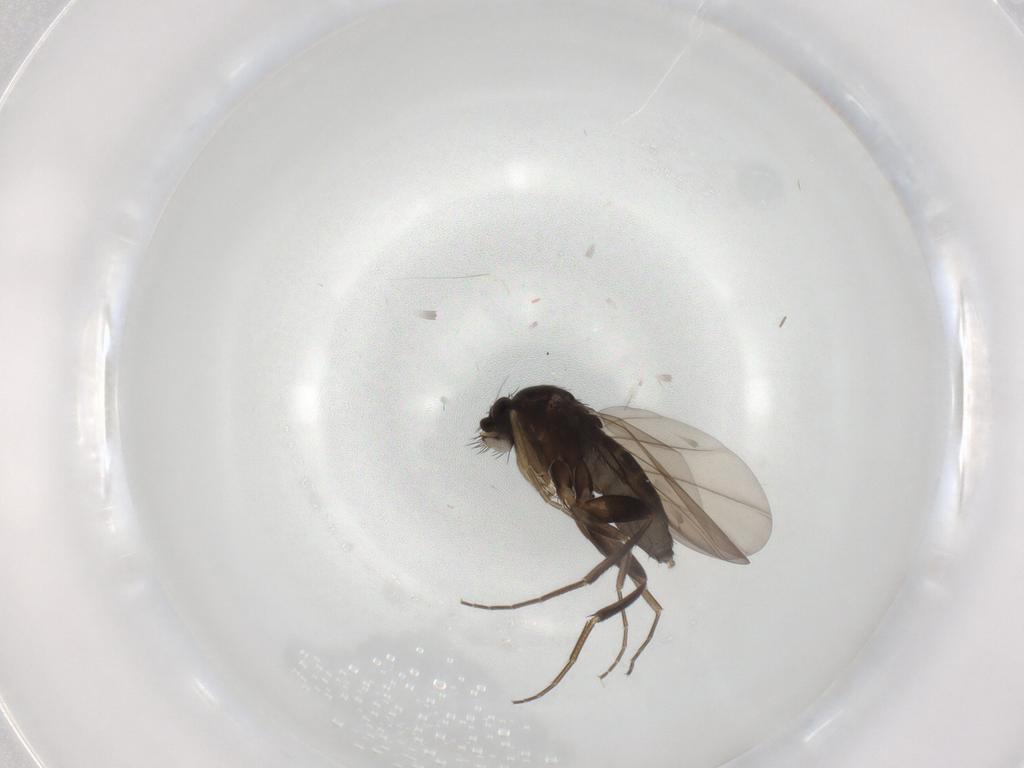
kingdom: Animalia
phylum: Arthropoda
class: Insecta
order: Diptera
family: Phoridae
